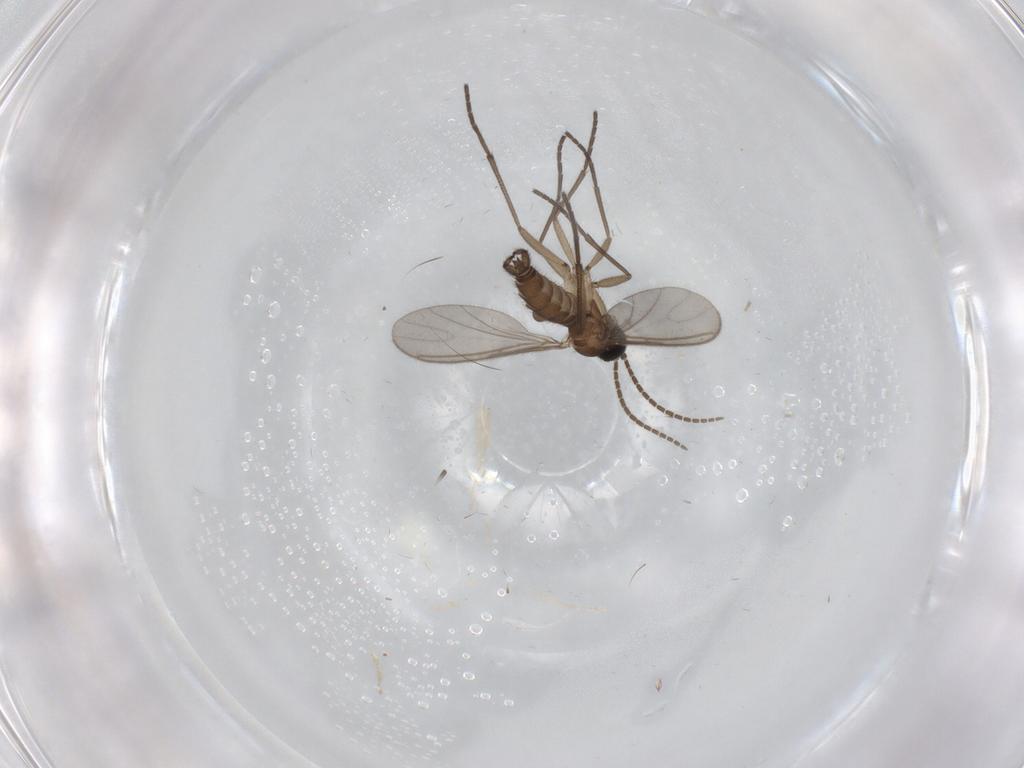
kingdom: Animalia
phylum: Arthropoda
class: Insecta
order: Diptera
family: Sciaridae
